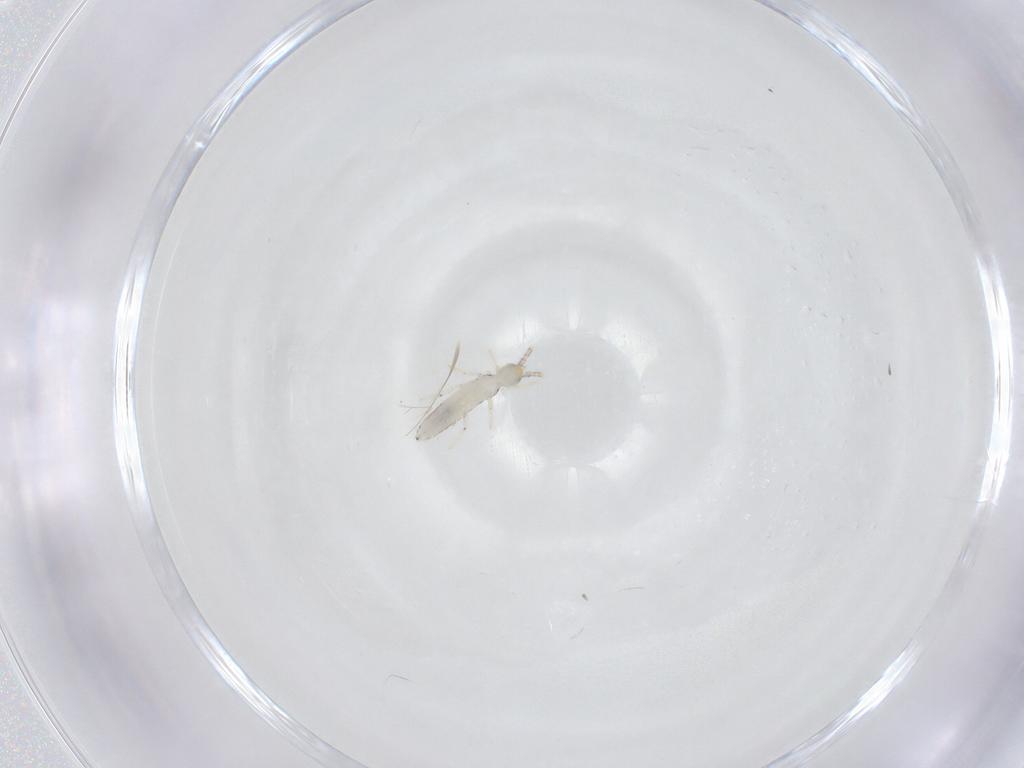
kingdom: Animalia
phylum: Arthropoda
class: Collembola
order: Entomobryomorpha
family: Entomobryidae
